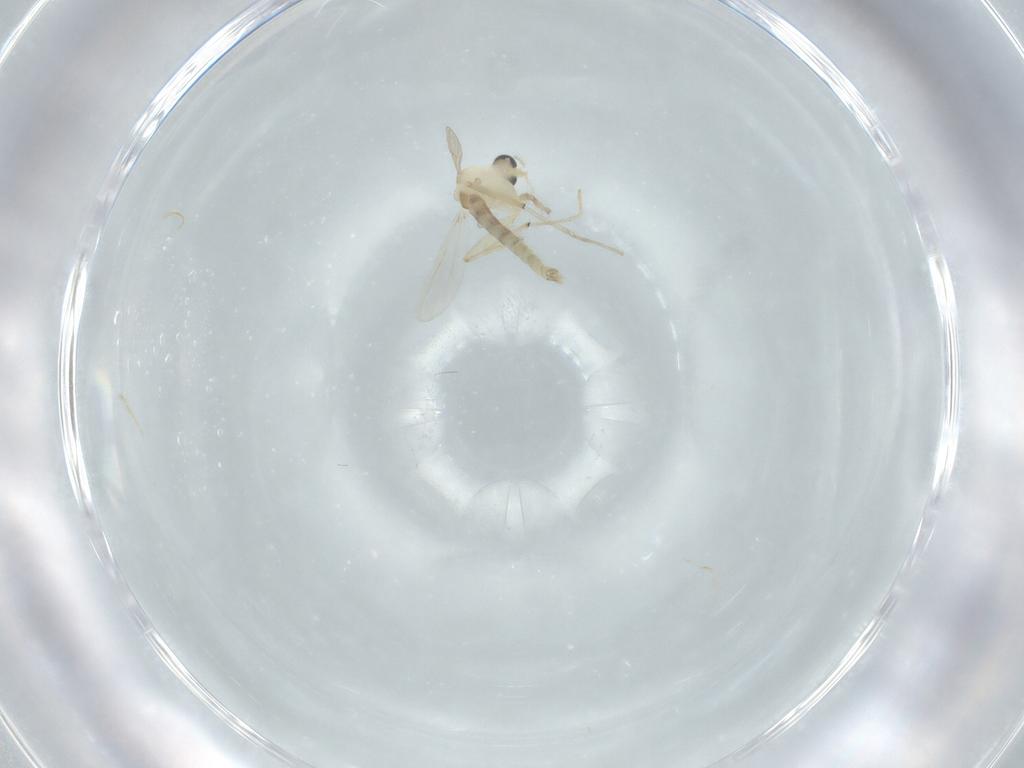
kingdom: Animalia
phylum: Arthropoda
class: Insecta
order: Diptera
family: Chironomidae
